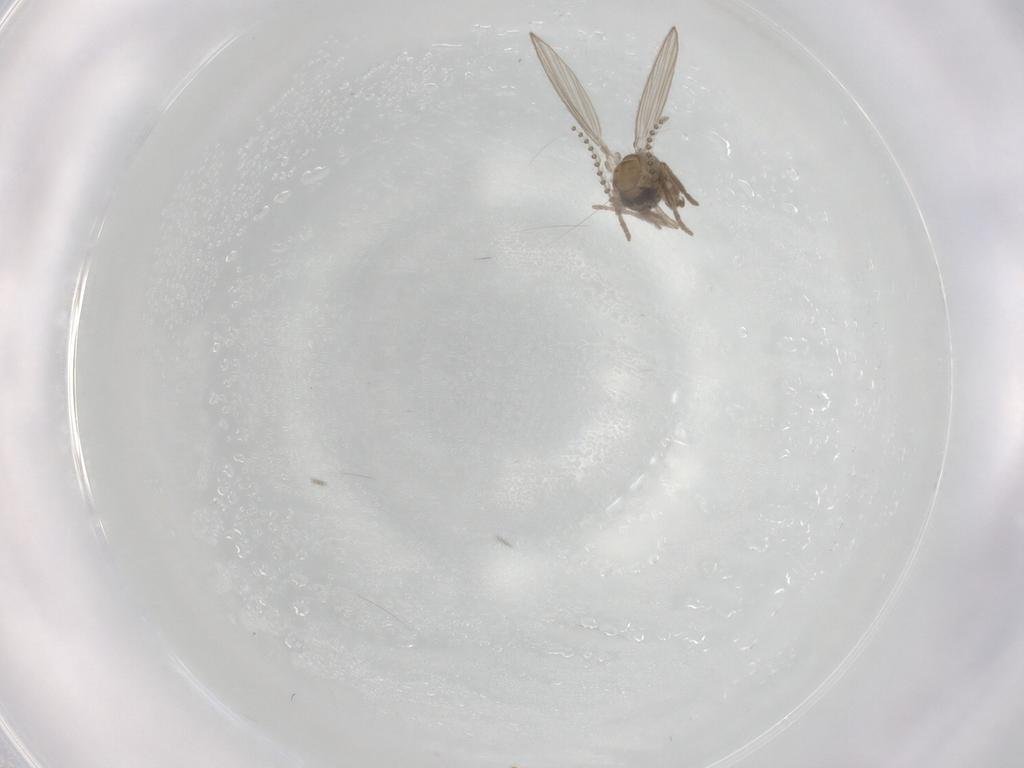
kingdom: Animalia
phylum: Arthropoda
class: Insecta
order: Diptera
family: Psychodidae
